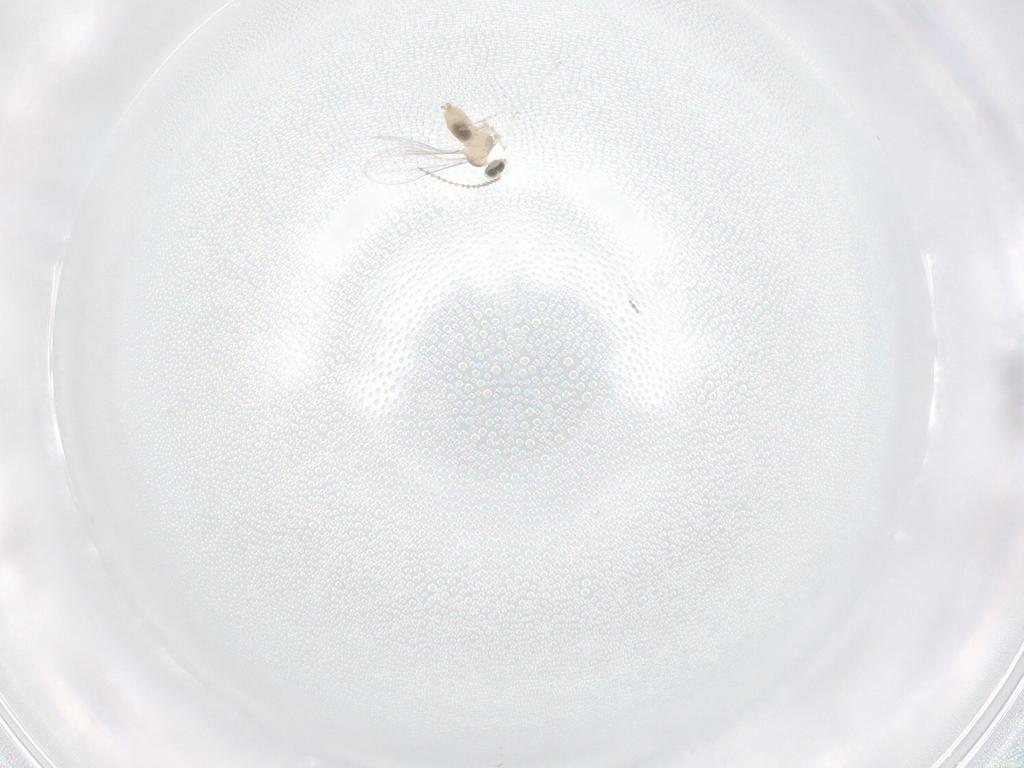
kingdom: Animalia
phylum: Arthropoda
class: Insecta
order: Diptera
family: Cecidomyiidae
